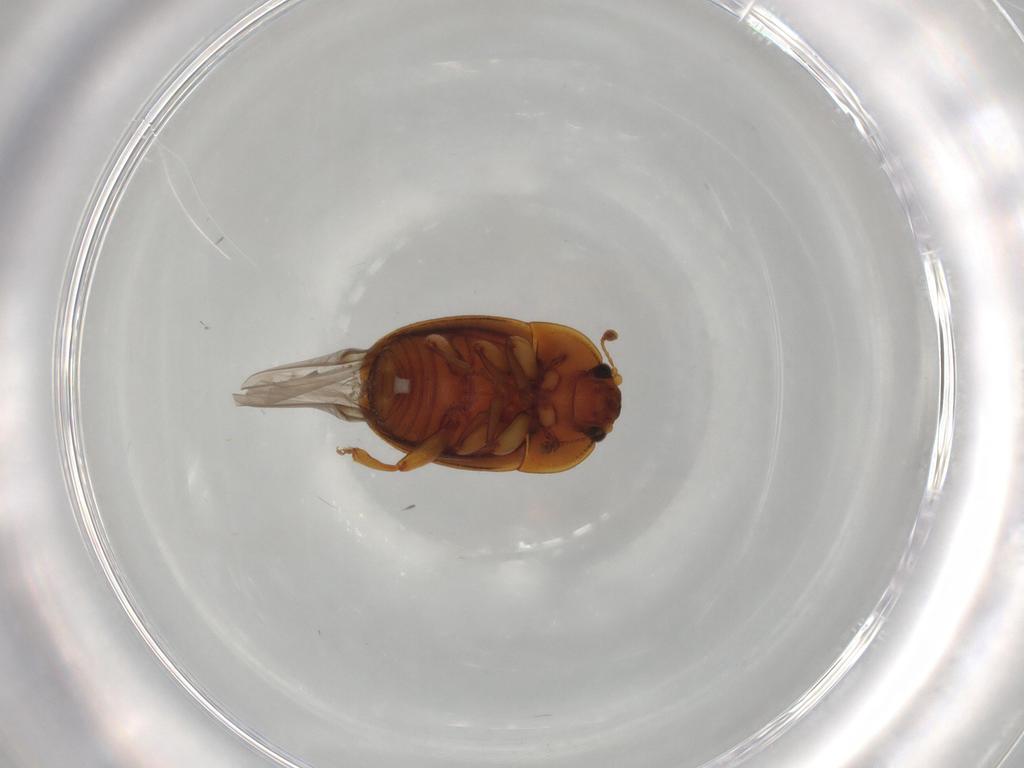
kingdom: Animalia
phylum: Arthropoda
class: Insecta
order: Coleoptera
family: Nitidulidae
